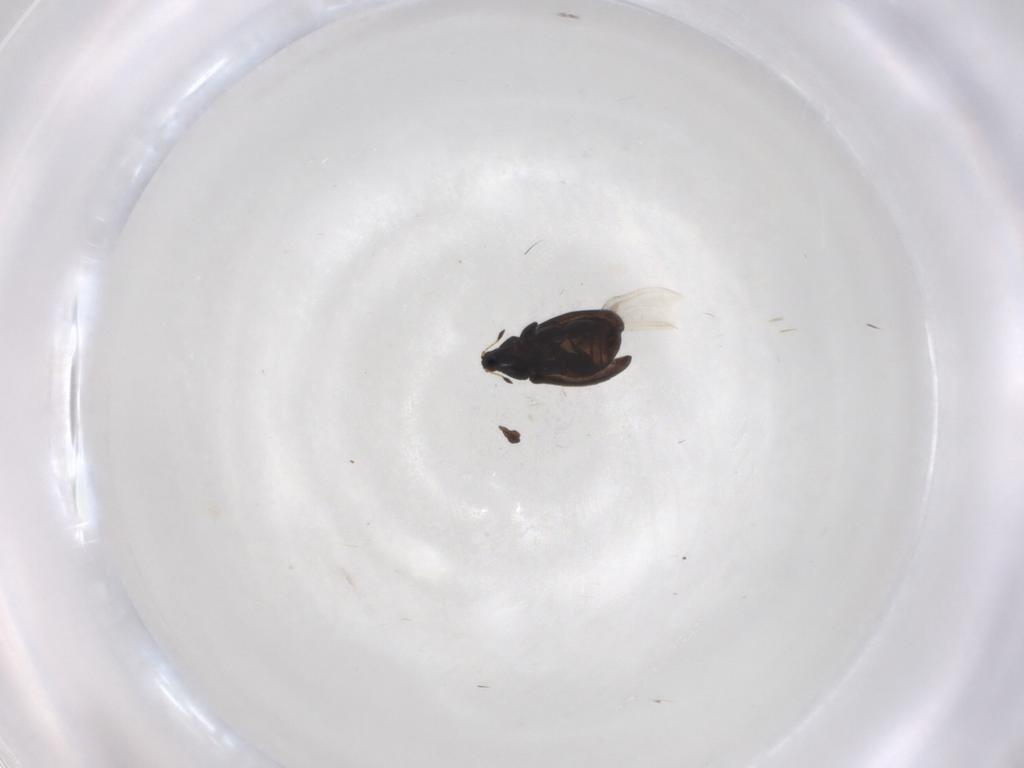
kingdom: Animalia
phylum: Arthropoda
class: Insecta
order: Coleoptera
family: Curculionidae
